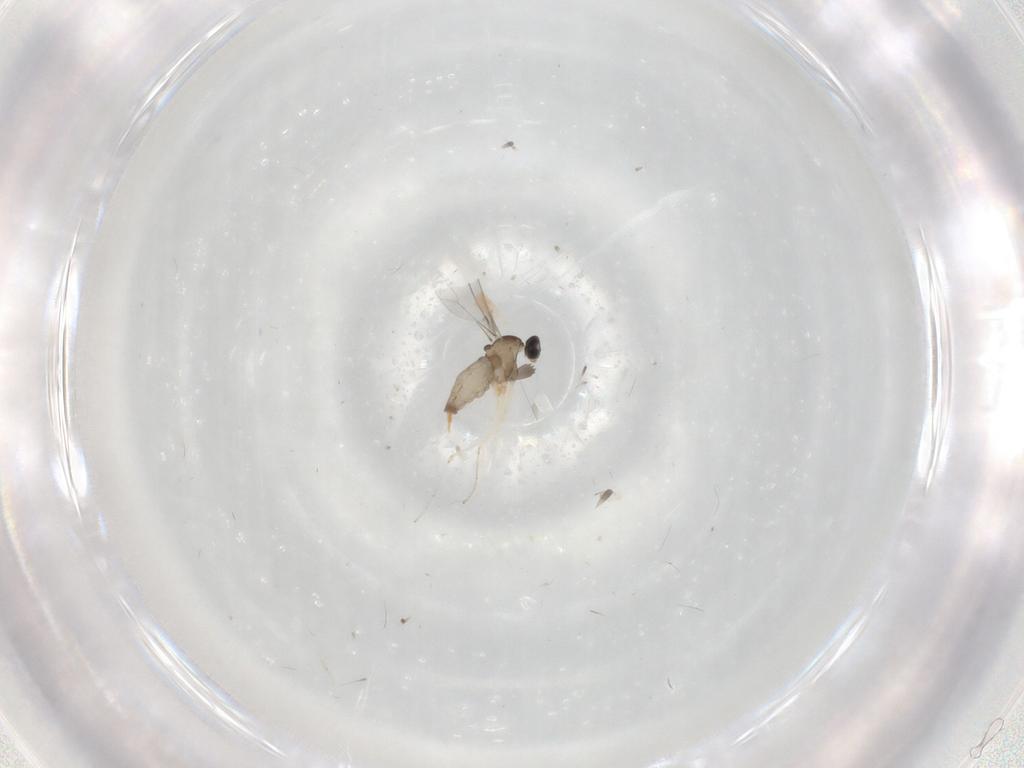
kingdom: Animalia
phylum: Arthropoda
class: Insecta
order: Diptera
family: Cecidomyiidae
